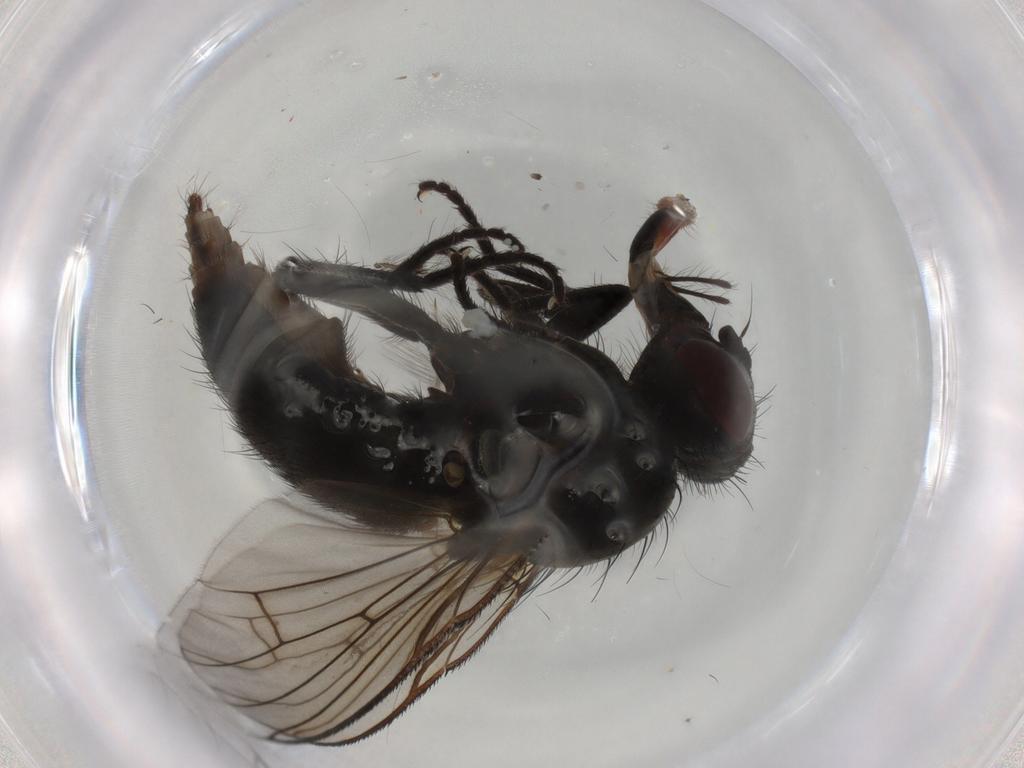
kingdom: Animalia
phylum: Arthropoda
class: Insecta
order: Diptera
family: Muscidae
